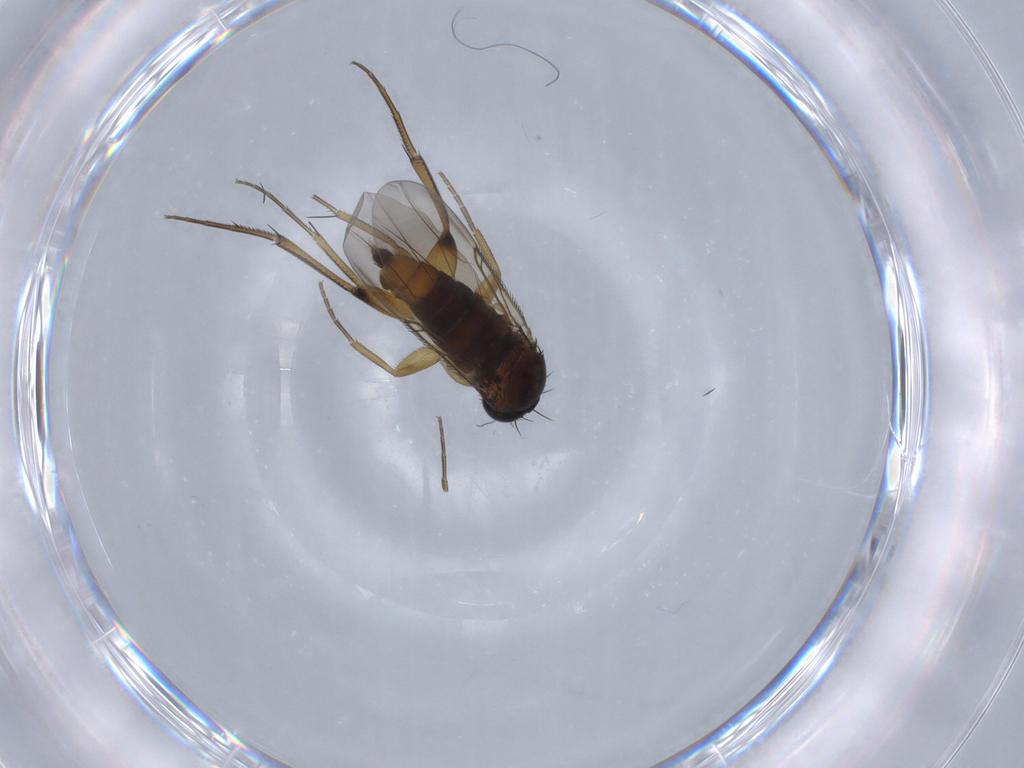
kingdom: Animalia
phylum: Arthropoda
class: Insecta
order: Diptera
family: Phoridae
